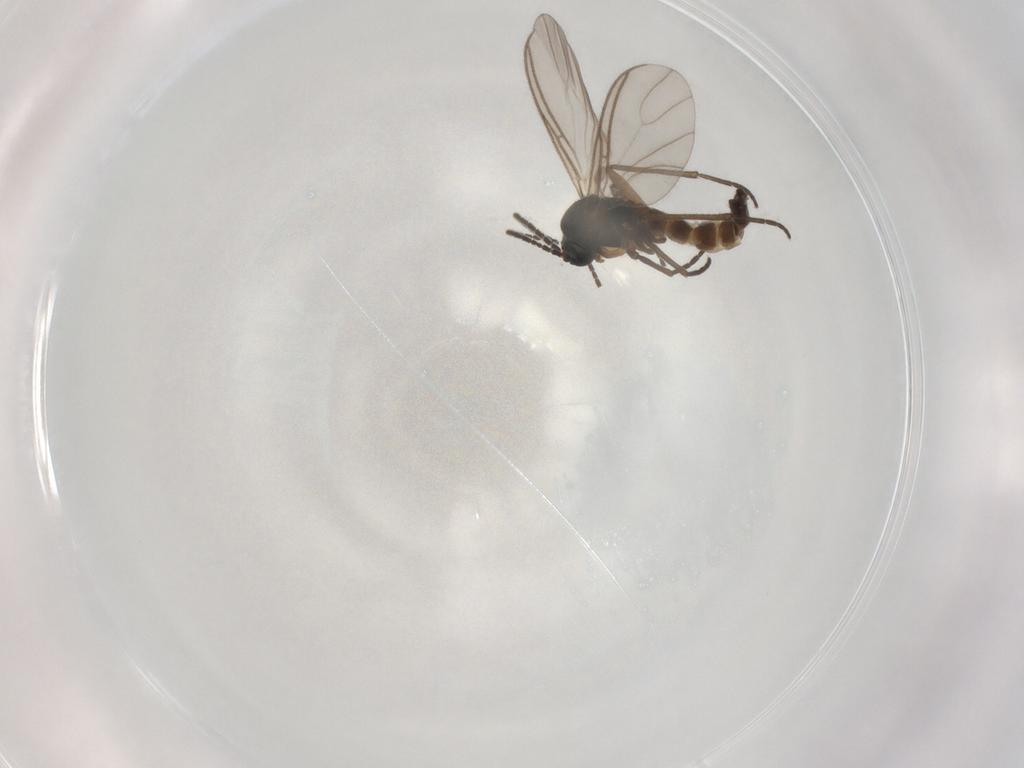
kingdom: Animalia
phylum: Arthropoda
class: Insecta
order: Diptera
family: Sciaridae
